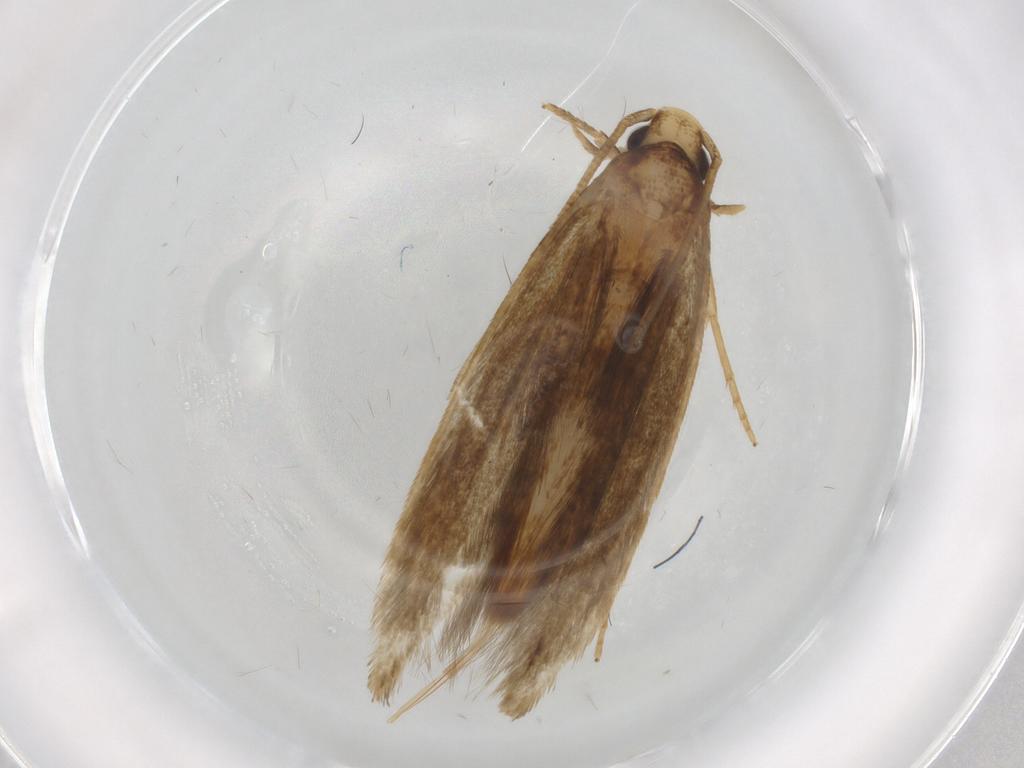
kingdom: Animalia
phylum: Arthropoda
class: Insecta
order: Lepidoptera
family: Tineidae
